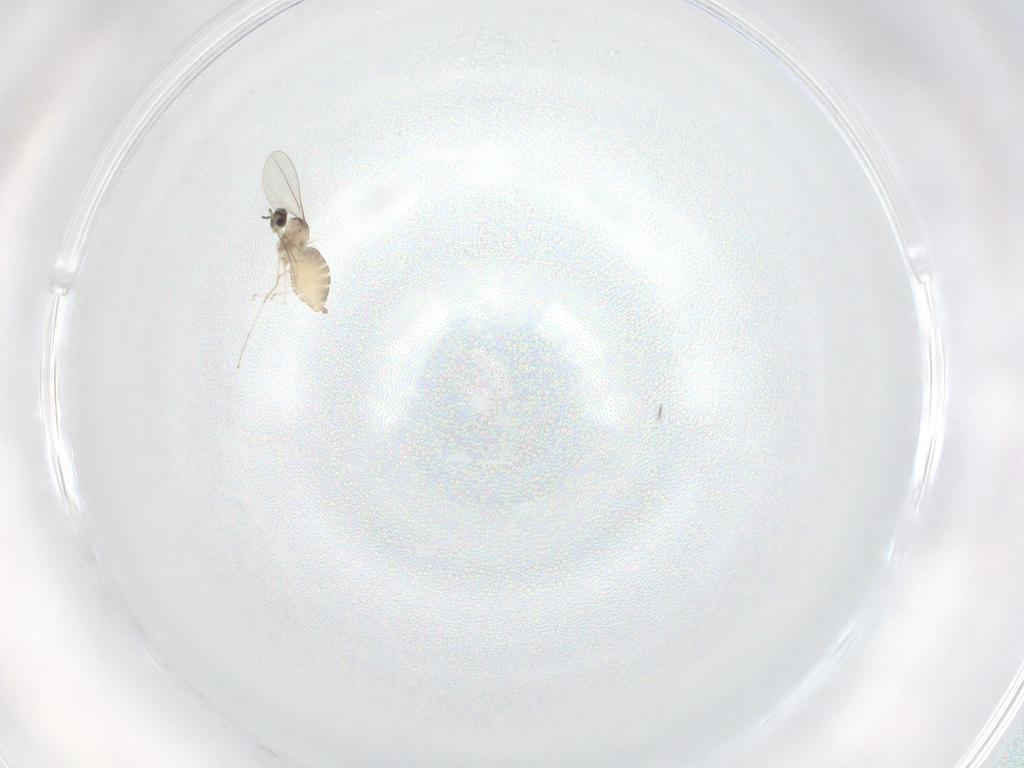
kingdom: Animalia
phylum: Arthropoda
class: Insecta
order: Diptera
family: Cecidomyiidae
